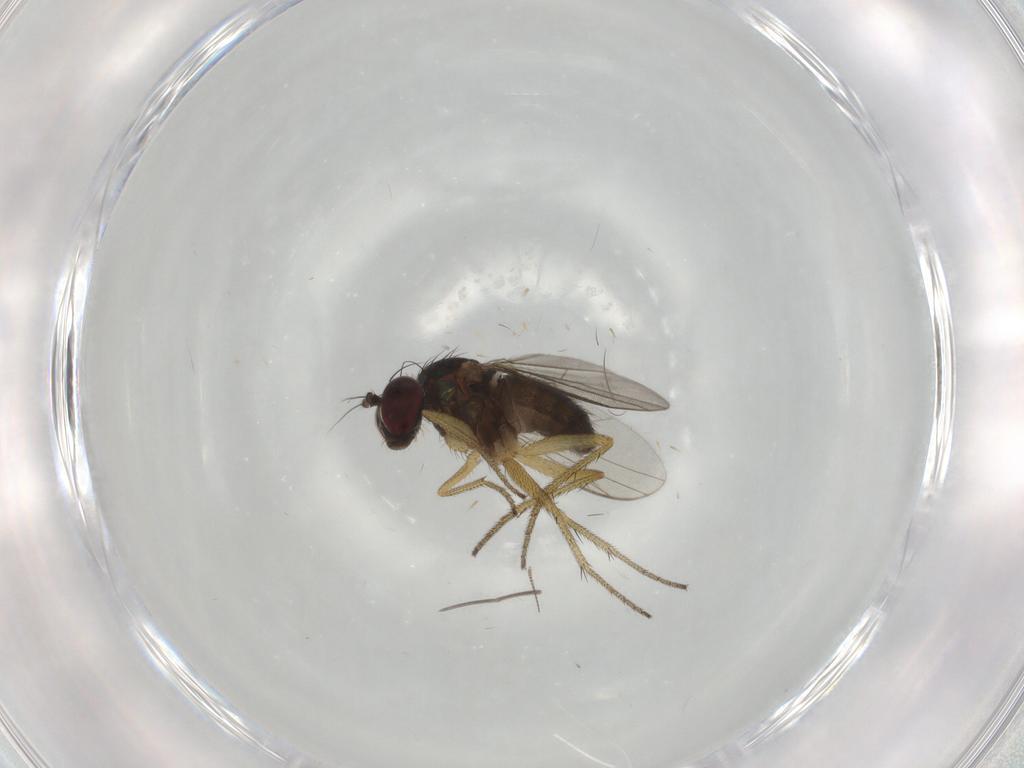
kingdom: Animalia
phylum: Arthropoda
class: Insecta
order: Diptera
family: Dolichopodidae
